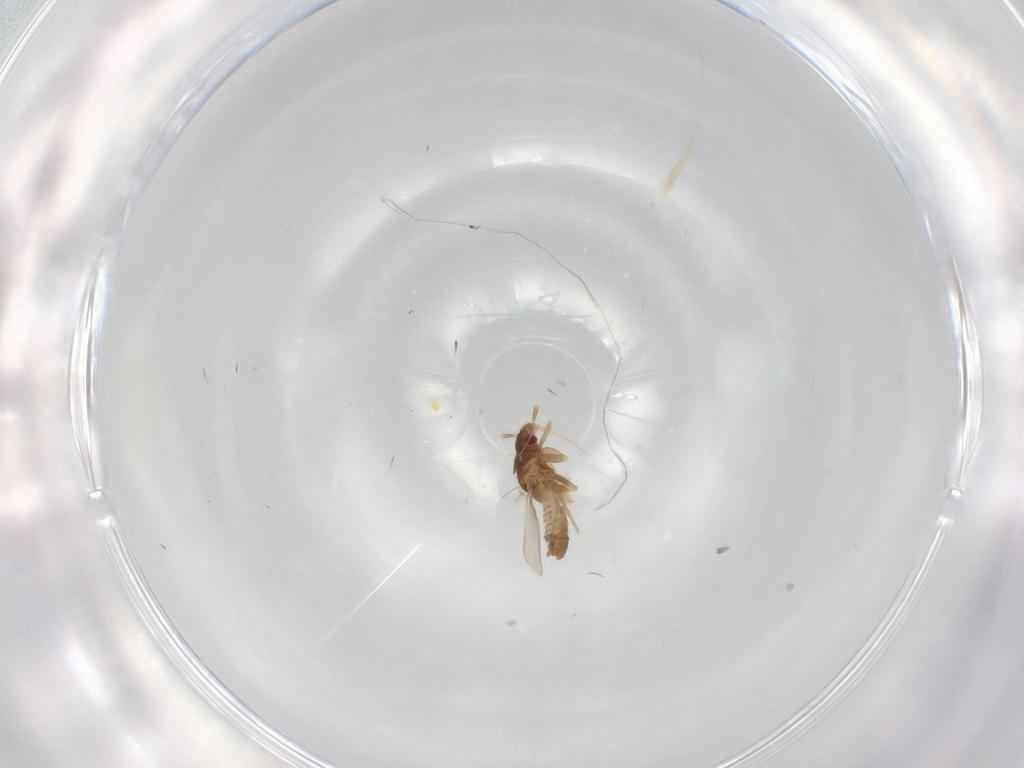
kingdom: Animalia
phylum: Arthropoda
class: Insecta
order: Hemiptera
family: Ceratocombidae
